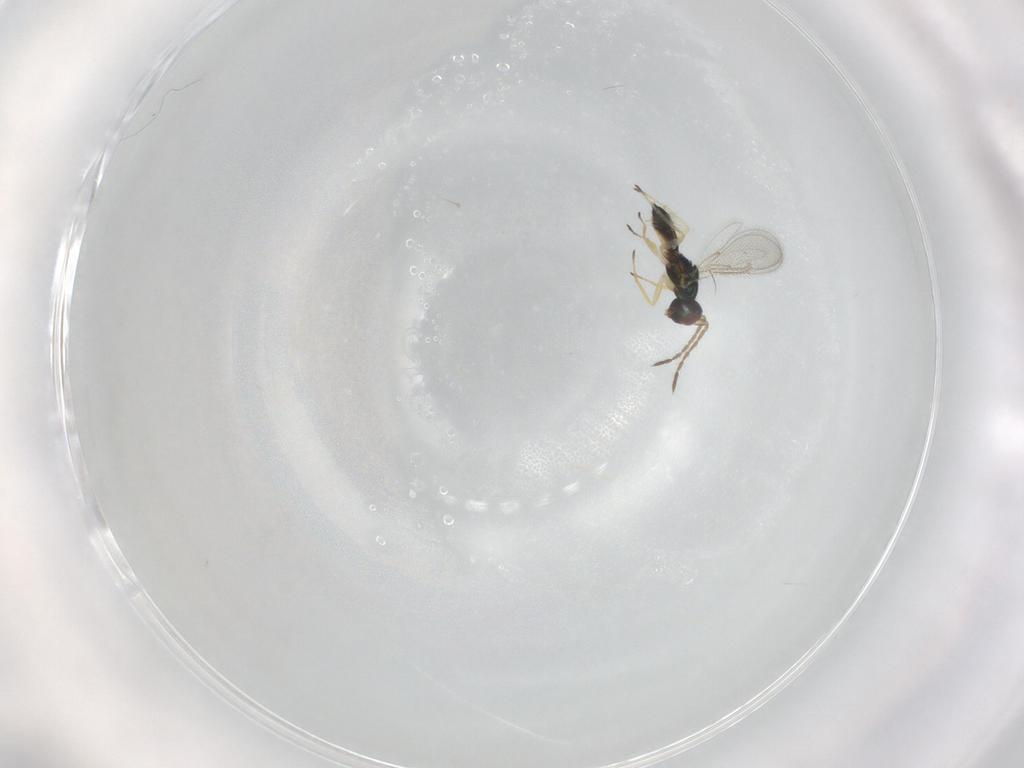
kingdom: Animalia
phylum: Arthropoda
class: Insecta
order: Hymenoptera
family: Eulophidae
